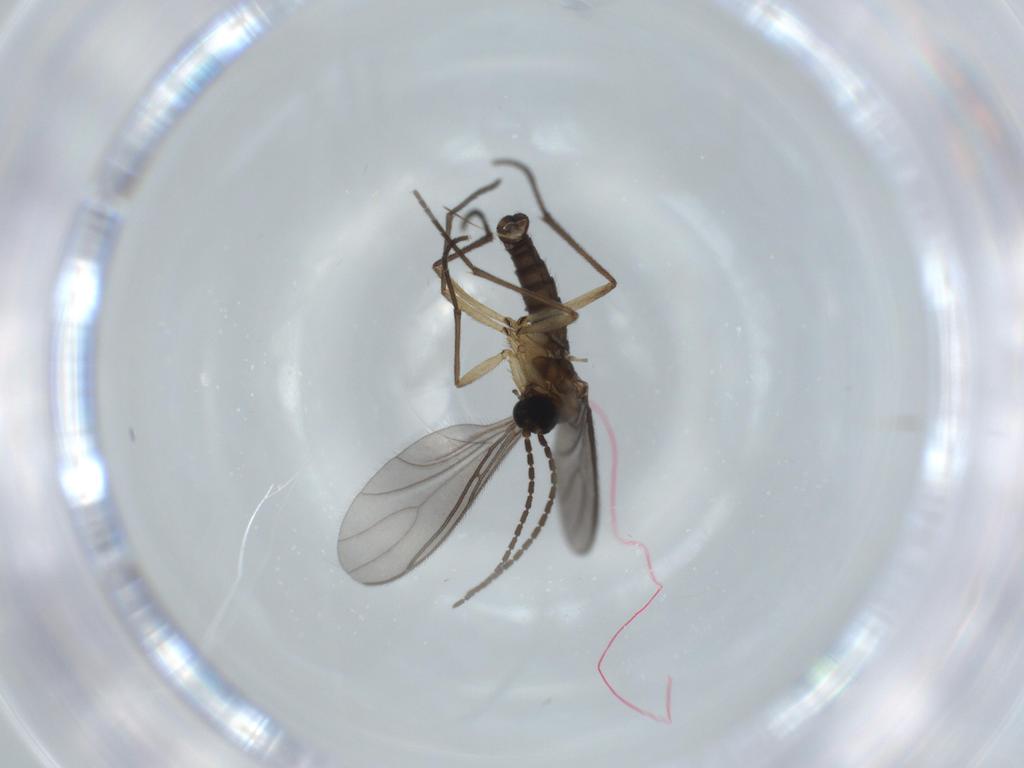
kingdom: Animalia
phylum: Arthropoda
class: Insecta
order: Diptera
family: Sciaridae
